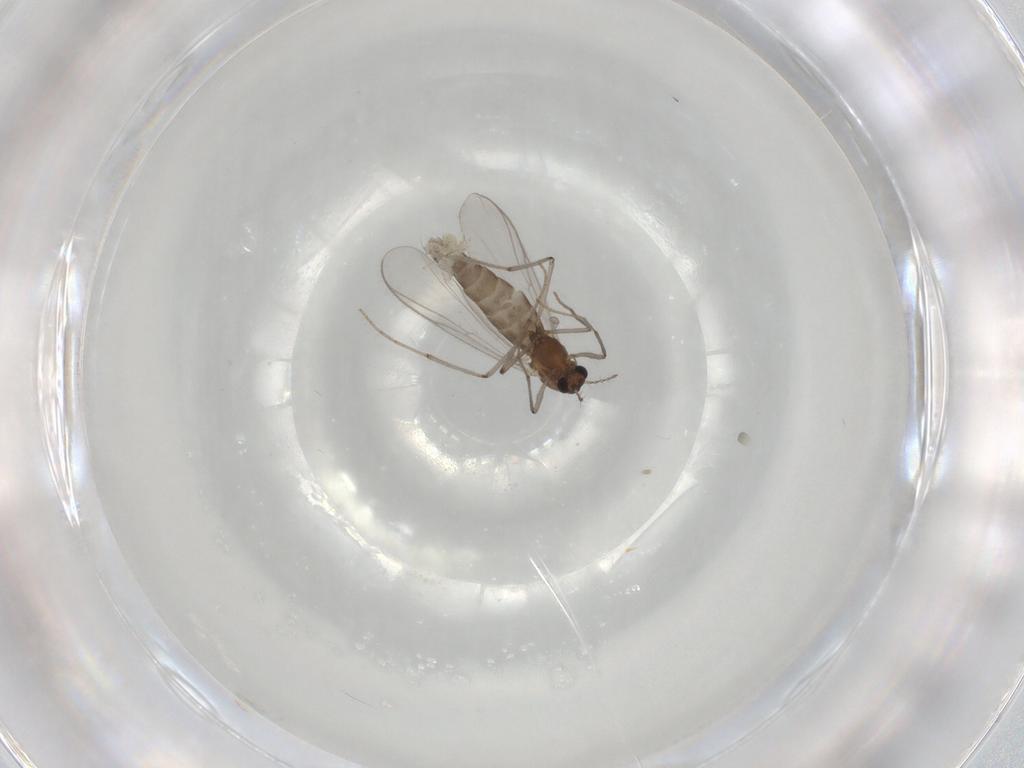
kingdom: Animalia
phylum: Arthropoda
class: Insecta
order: Diptera
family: Chironomidae
